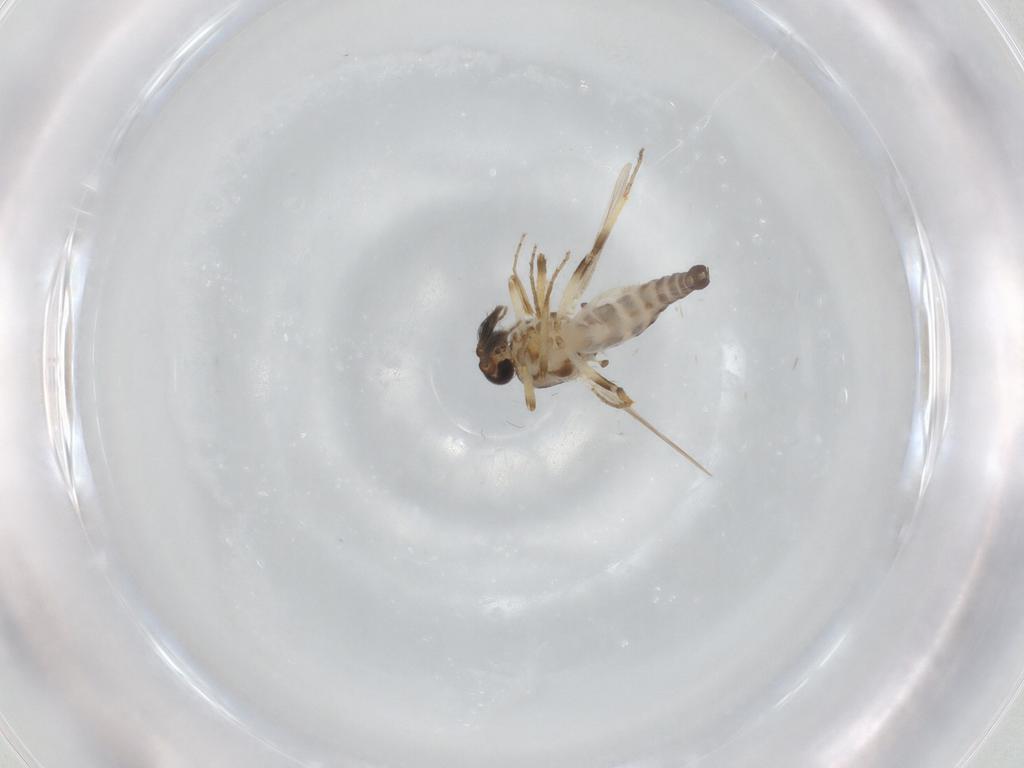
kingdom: Animalia
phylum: Arthropoda
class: Insecta
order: Diptera
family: Ceratopogonidae
